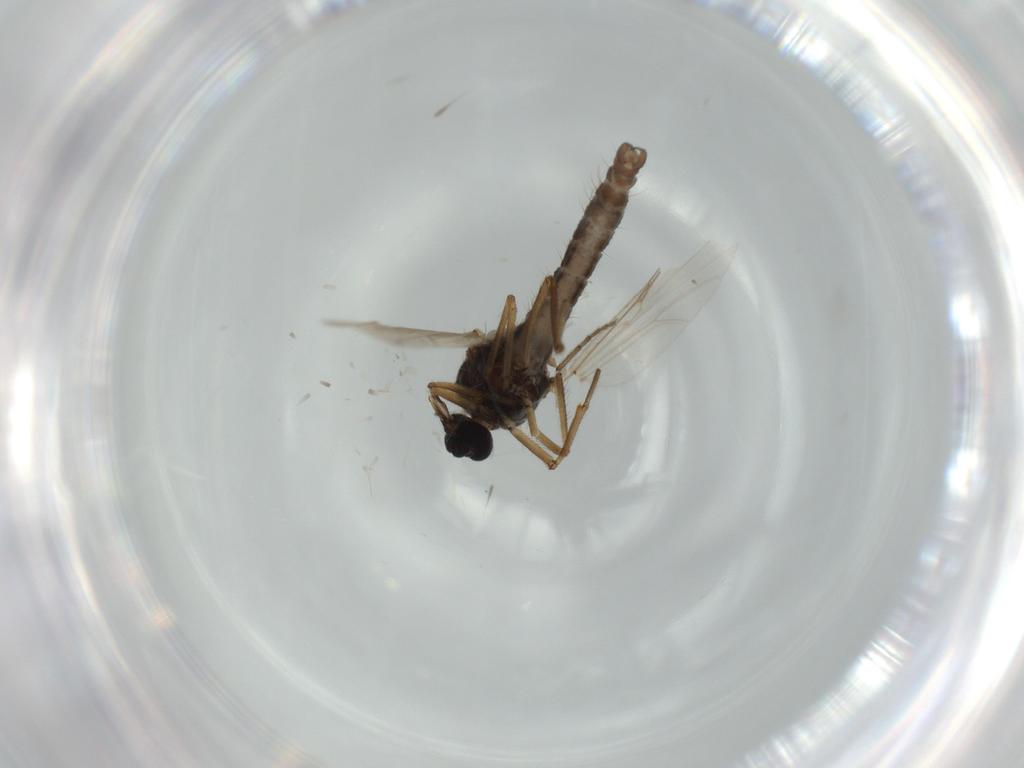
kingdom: Animalia
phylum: Arthropoda
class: Insecta
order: Diptera
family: Ceratopogonidae
